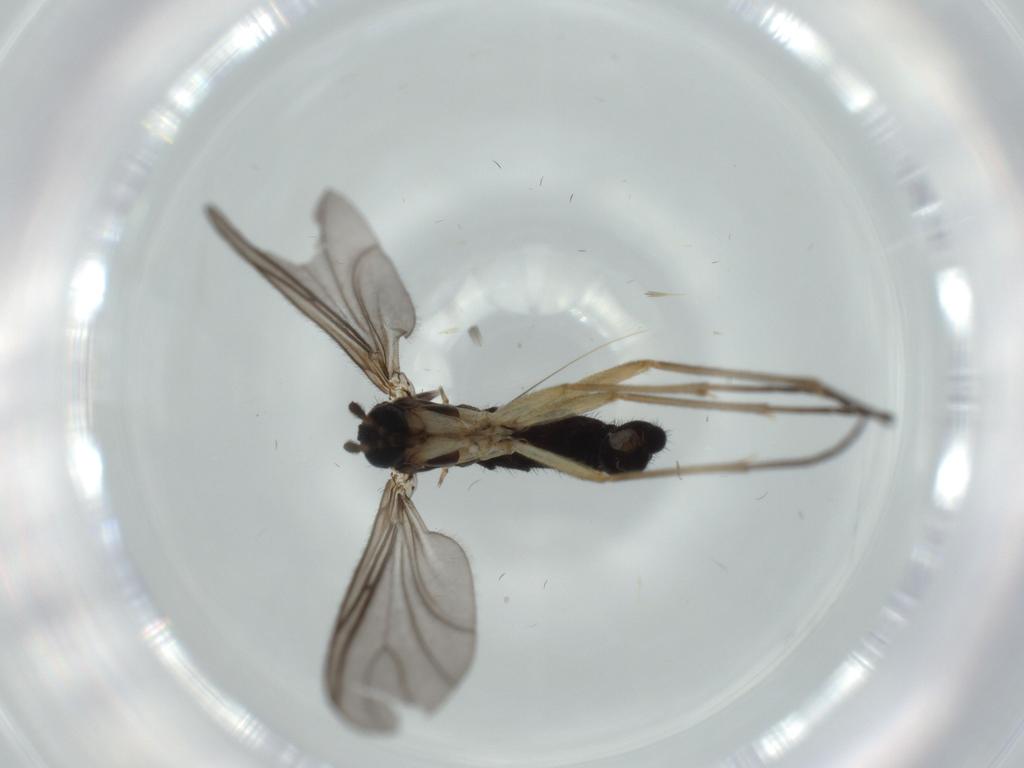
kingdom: Animalia
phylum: Arthropoda
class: Insecta
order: Diptera
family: Sciaridae
